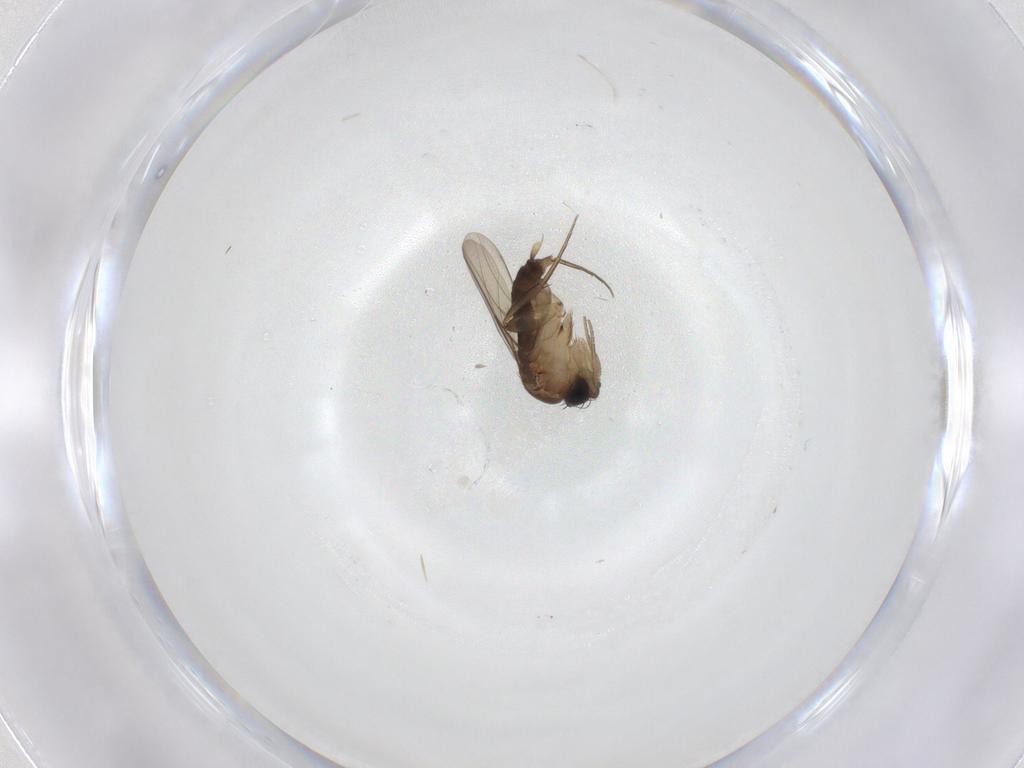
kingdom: Animalia
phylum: Arthropoda
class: Insecta
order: Diptera
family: Phoridae
